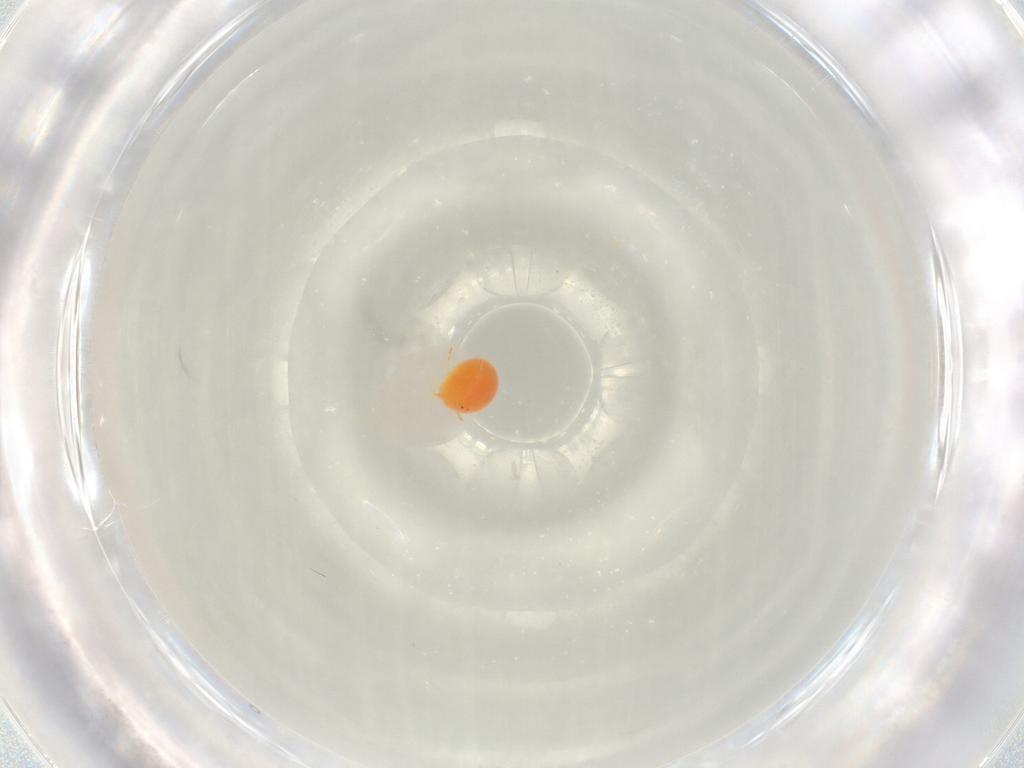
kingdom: Animalia
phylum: Arthropoda
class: Arachnida
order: Trombidiformes
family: Hydryphantidae
